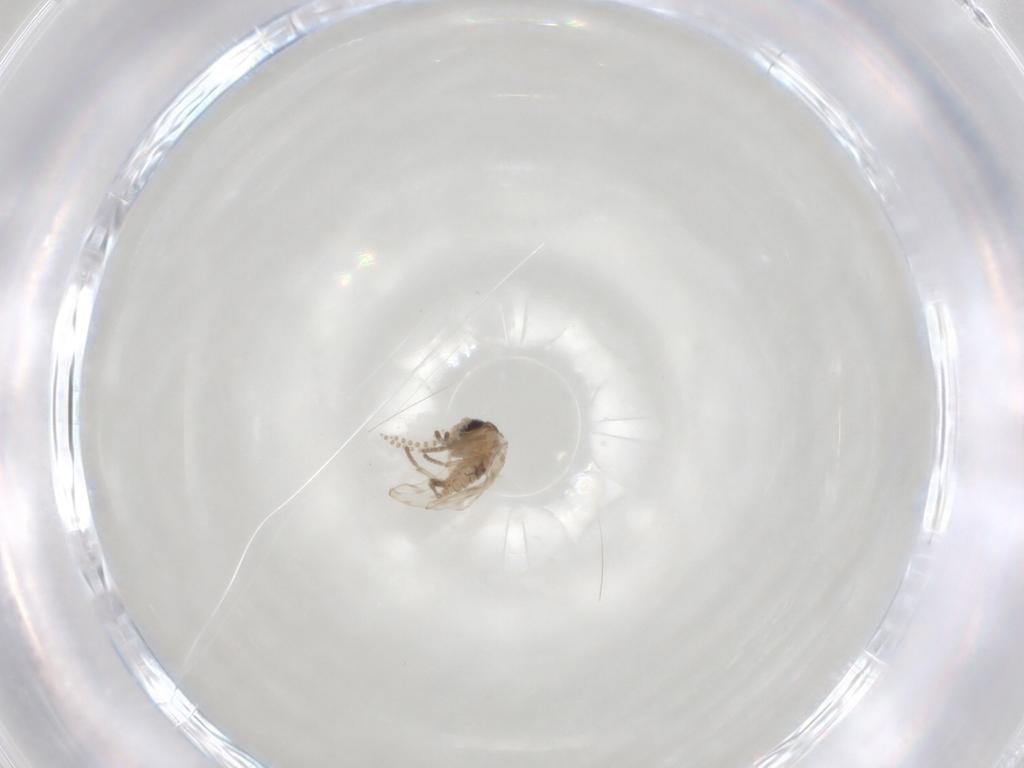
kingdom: Animalia
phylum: Arthropoda
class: Insecta
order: Diptera
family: Psychodidae
